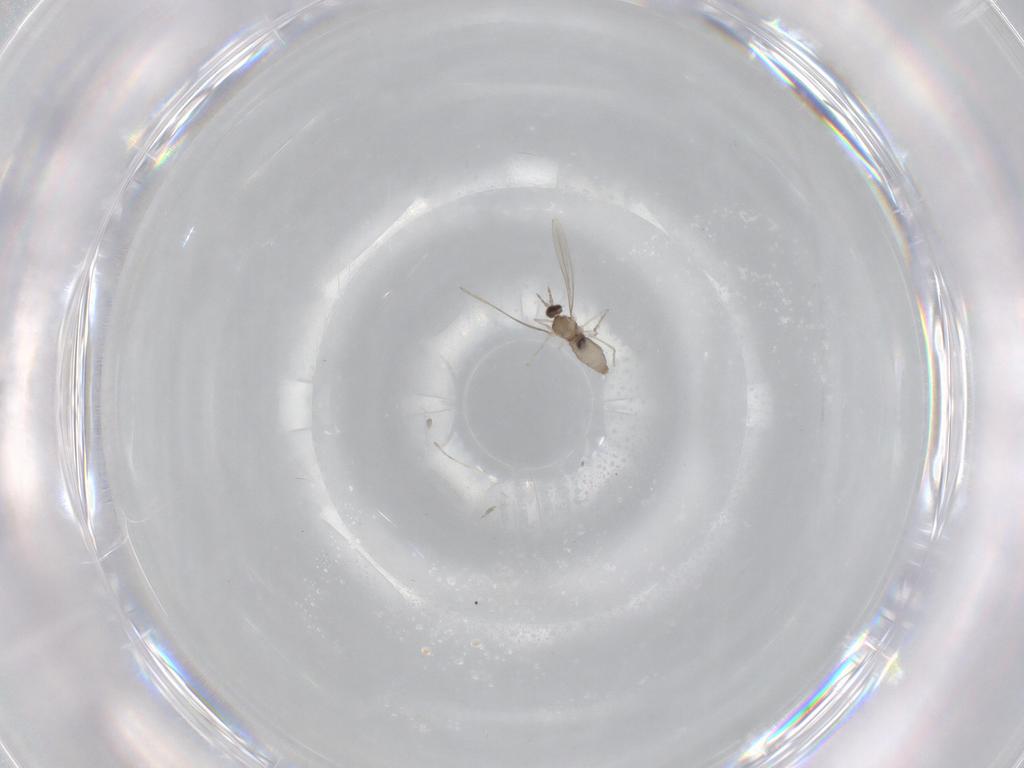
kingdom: Animalia
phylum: Arthropoda
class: Insecta
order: Diptera
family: Cecidomyiidae
